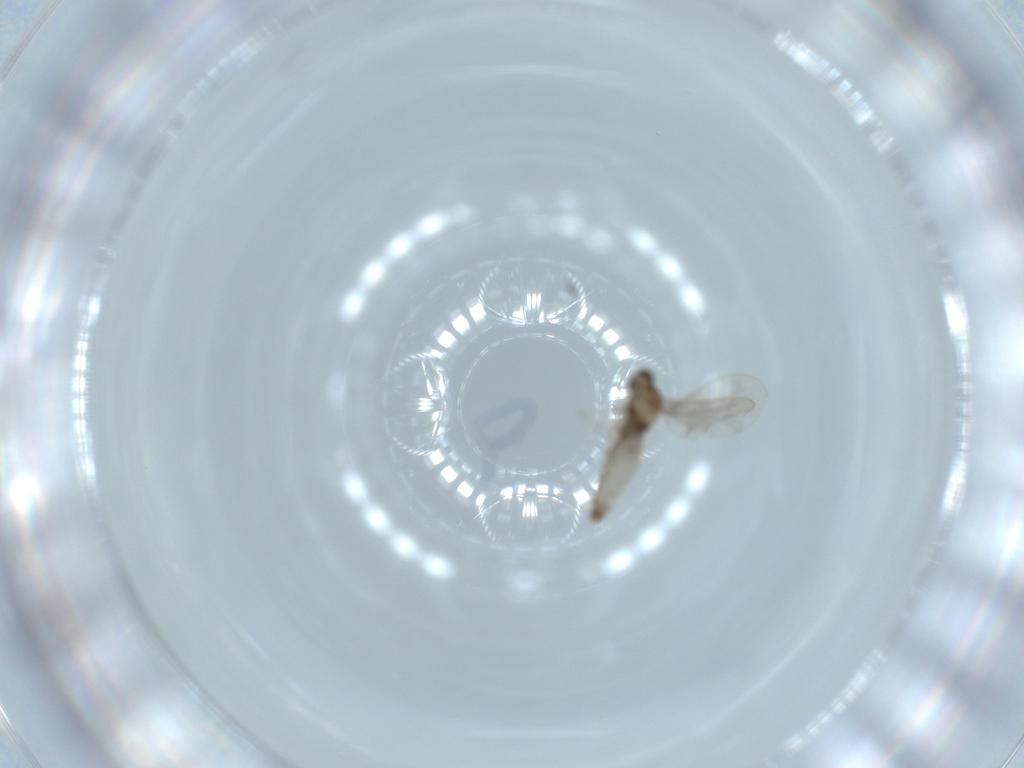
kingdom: Animalia
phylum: Arthropoda
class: Insecta
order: Diptera
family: Cecidomyiidae
